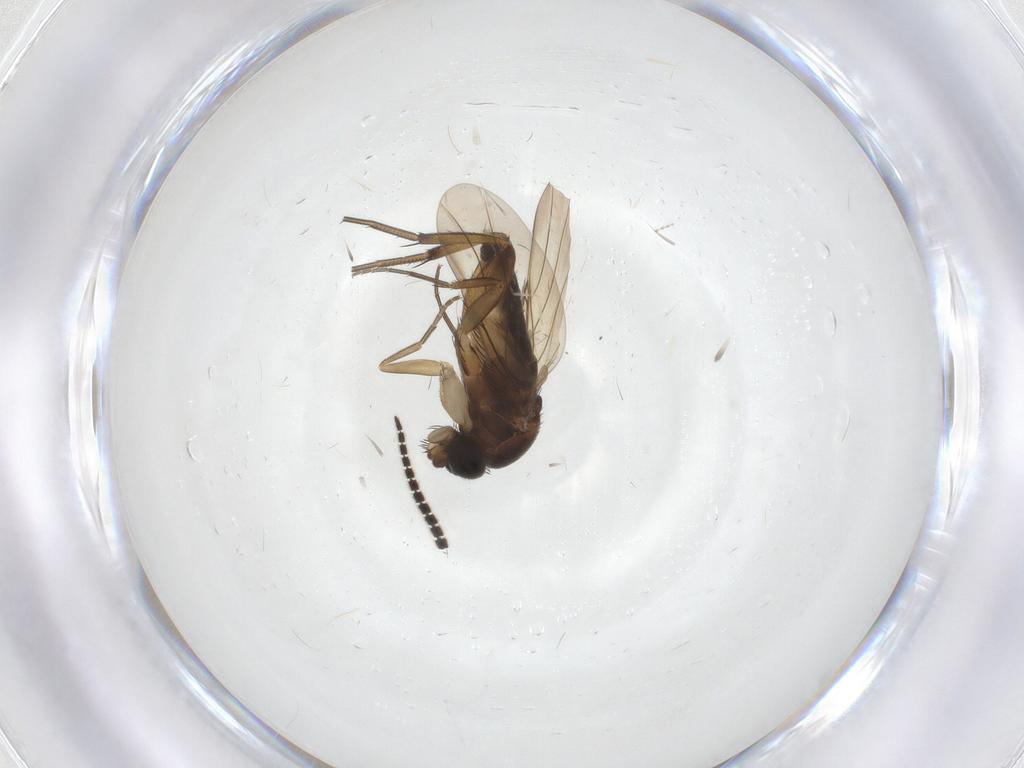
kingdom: Animalia
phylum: Arthropoda
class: Insecta
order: Diptera
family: Phoridae
